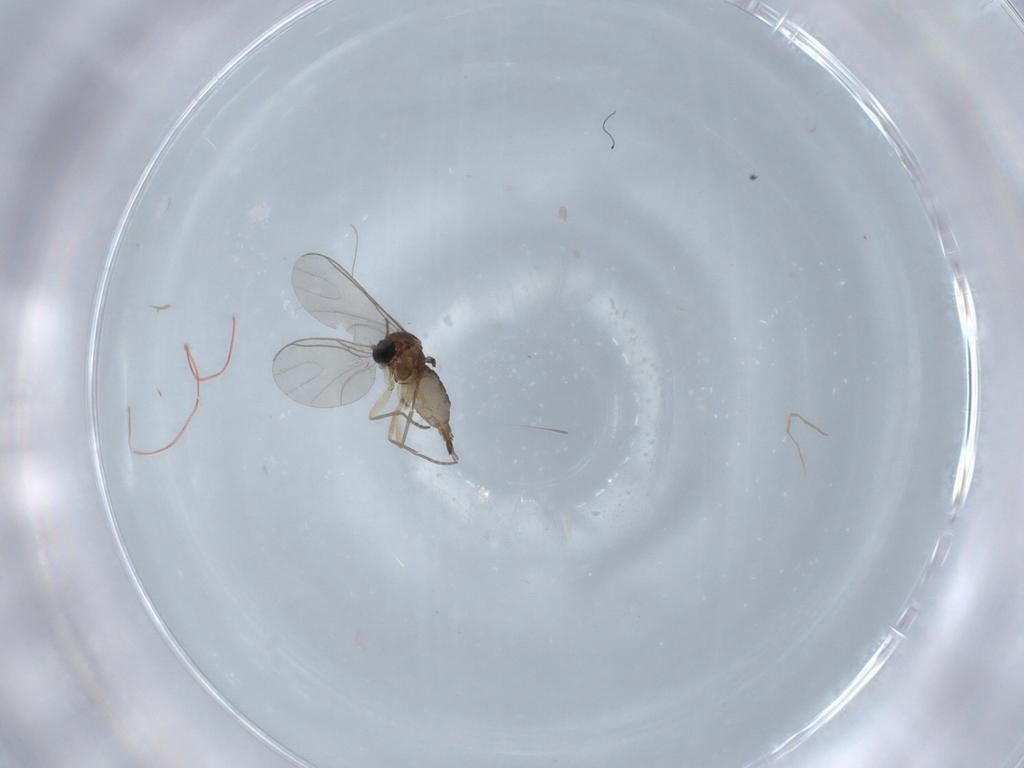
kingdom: Animalia
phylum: Arthropoda
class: Insecta
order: Diptera
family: Sciaridae
